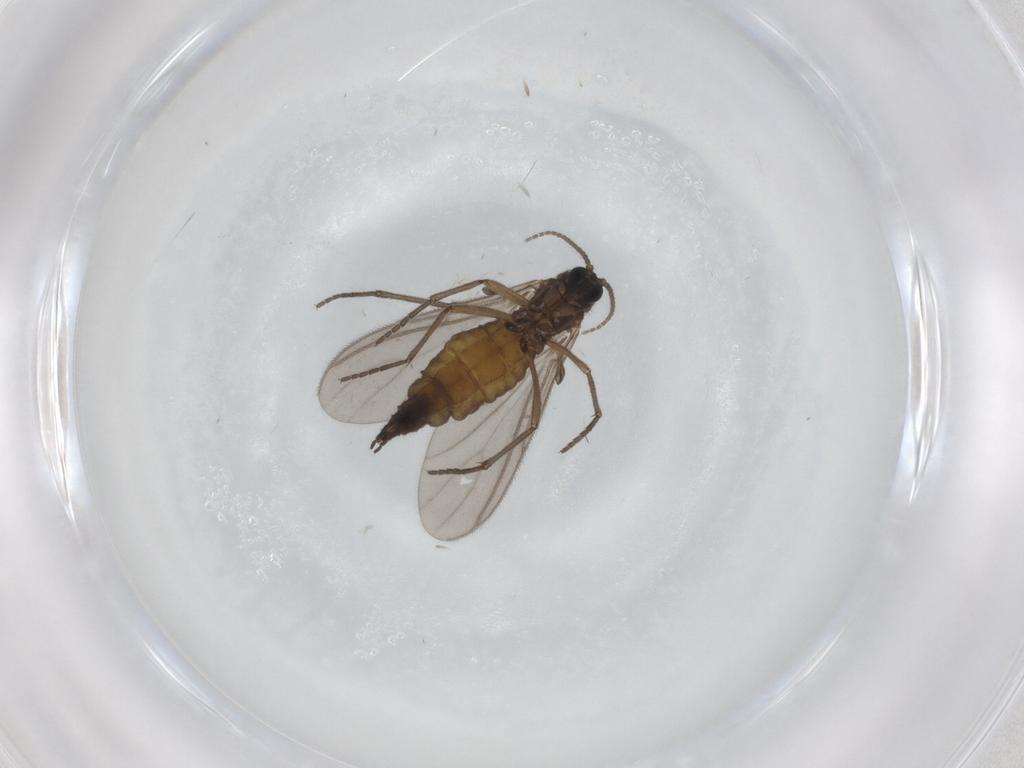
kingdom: Animalia
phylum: Arthropoda
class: Insecta
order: Diptera
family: Cecidomyiidae
